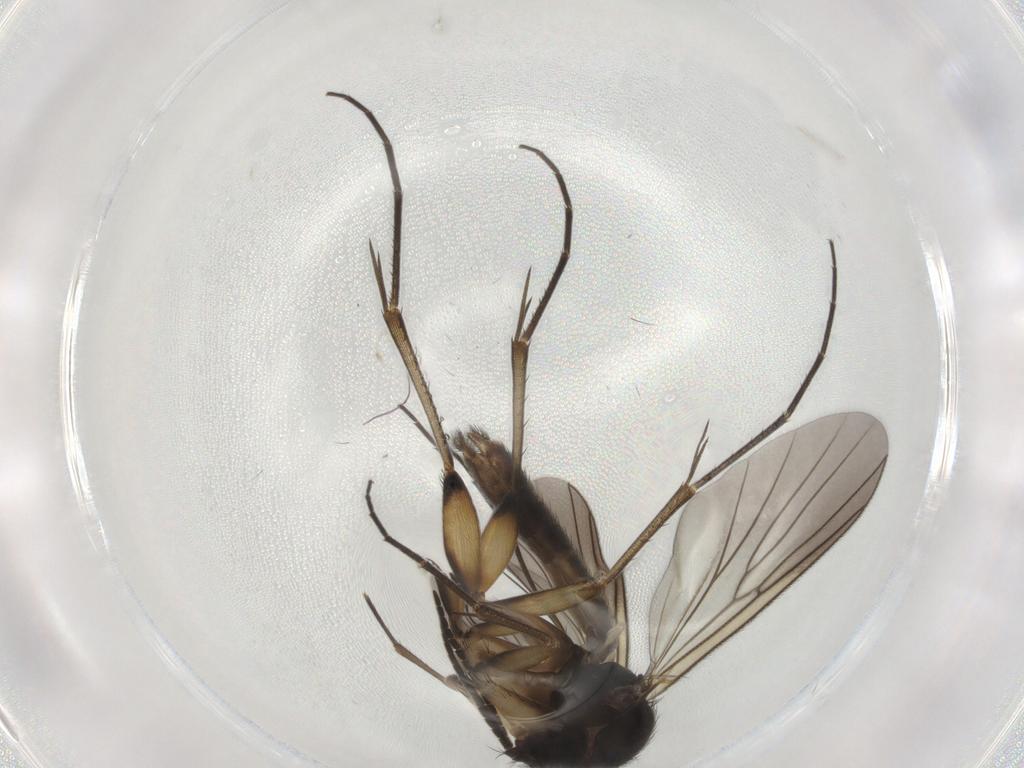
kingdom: Animalia
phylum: Arthropoda
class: Insecta
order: Diptera
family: Mycetophilidae
